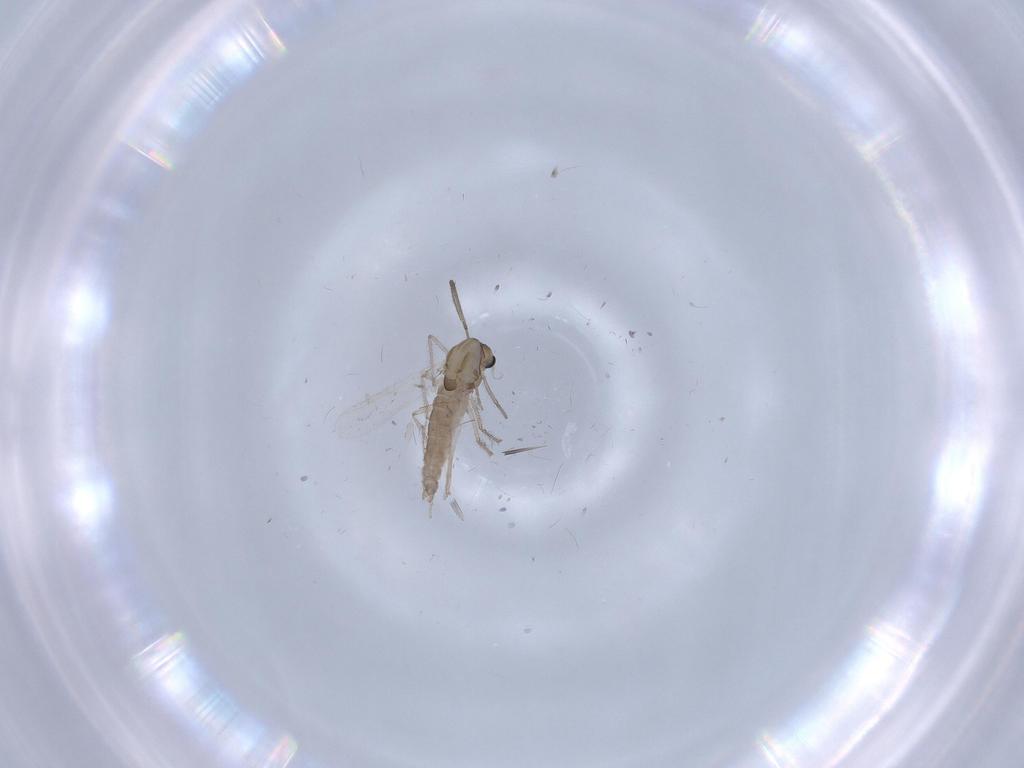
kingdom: Animalia
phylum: Arthropoda
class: Insecta
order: Diptera
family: Chironomidae
